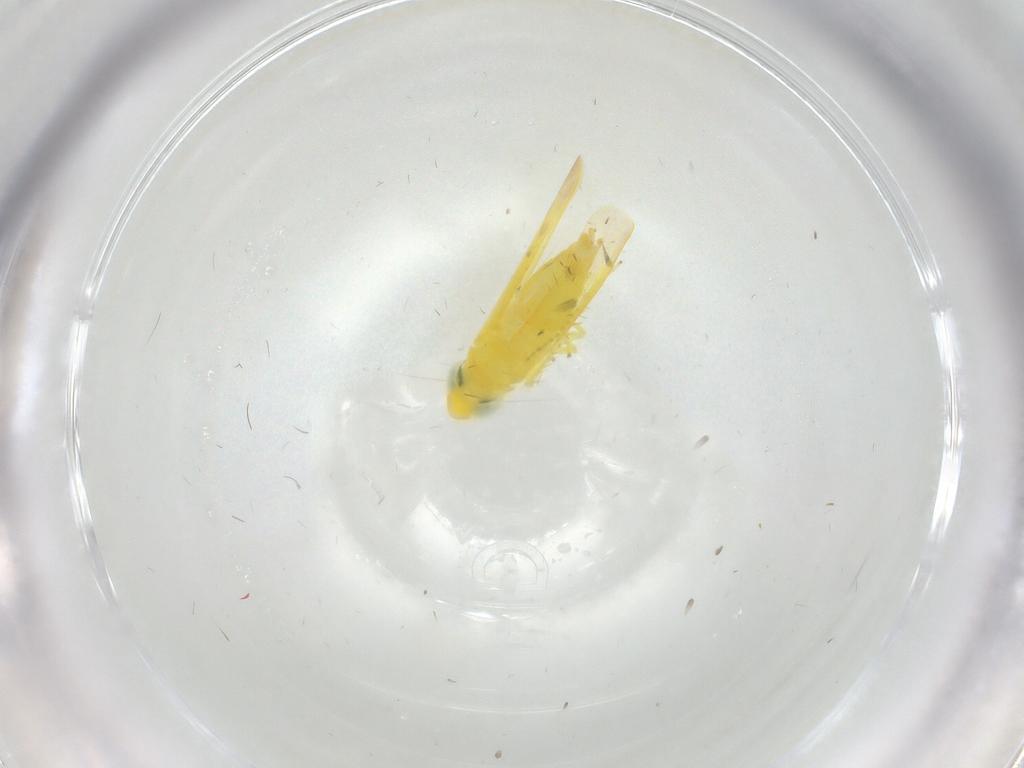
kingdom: Animalia
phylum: Arthropoda
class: Insecta
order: Hemiptera
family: Cicadellidae
